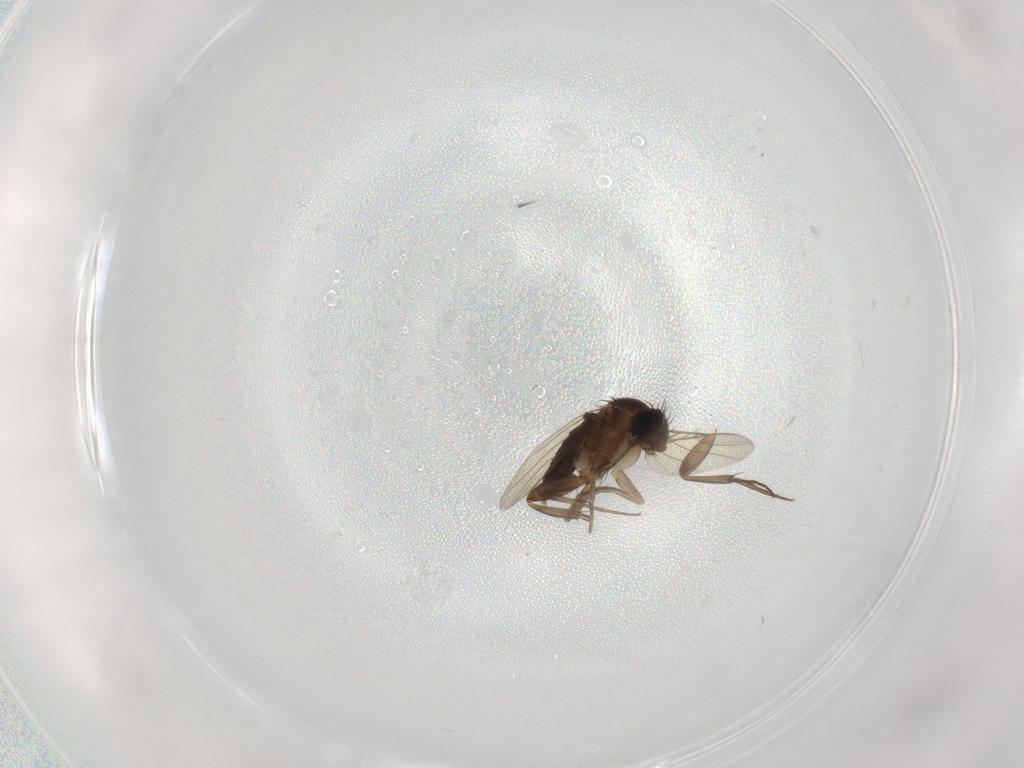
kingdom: Animalia
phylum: Arthropoda
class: Insecta
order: Diptera
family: Phoridae
